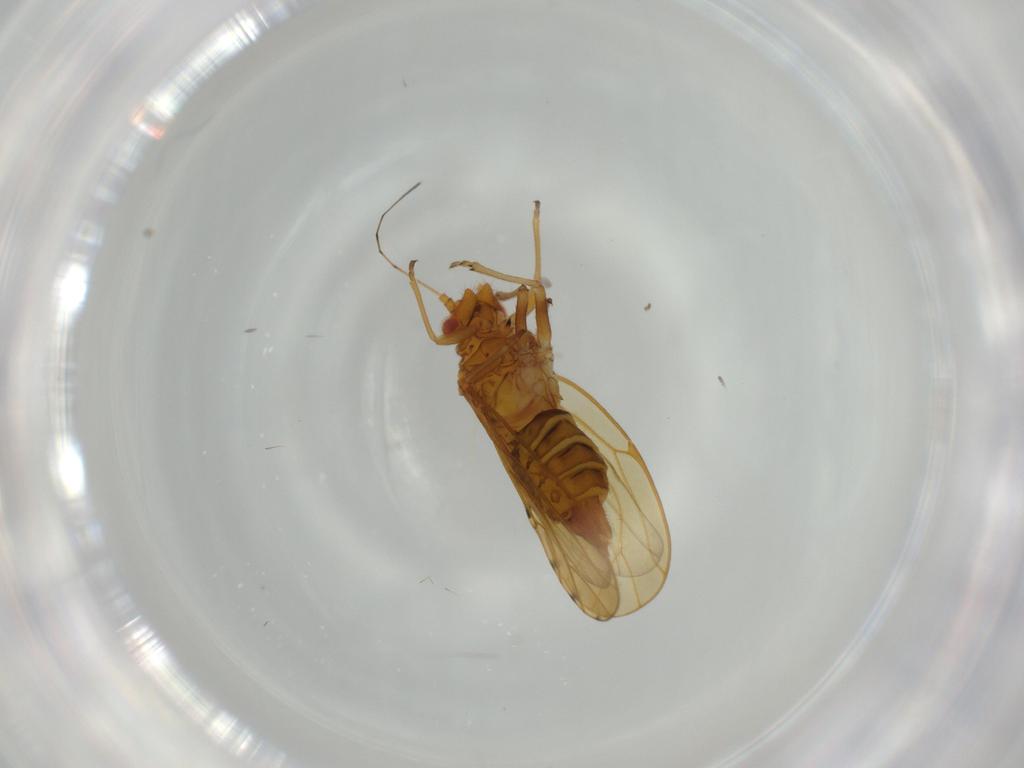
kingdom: Animalia
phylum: Arthropoda
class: Insecta
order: Hemiptera
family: Psylloidea_incertae_sedis
